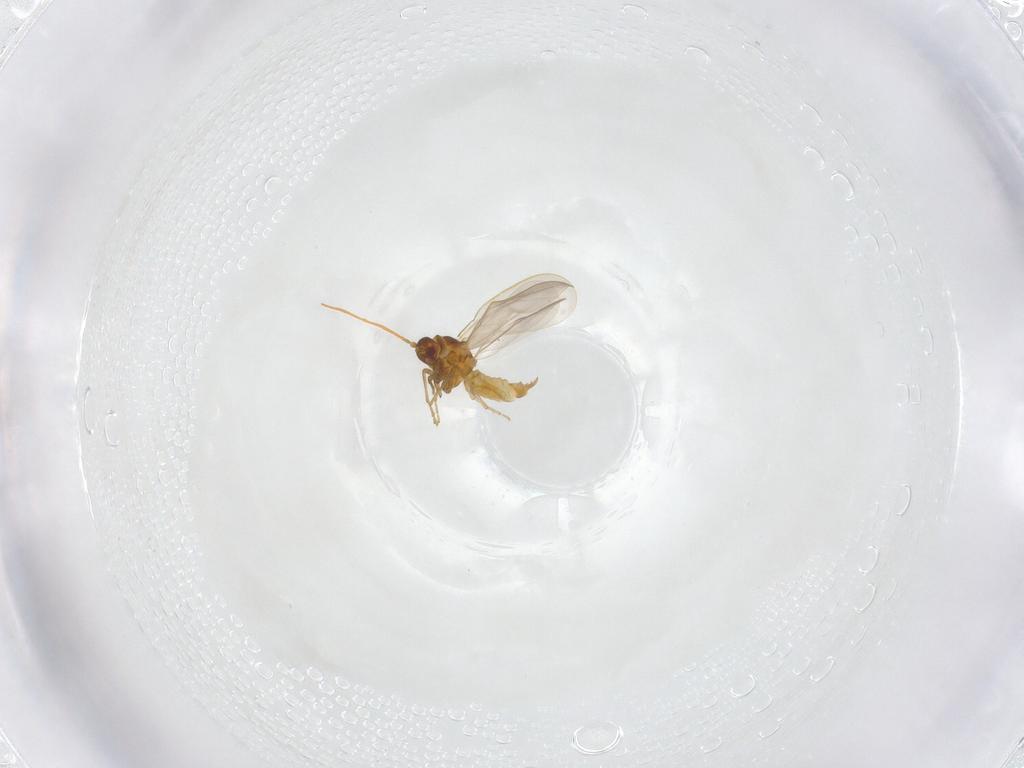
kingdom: Animalia
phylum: Arthropoda
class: Insecta
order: Hemiptera
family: Aleyrodidae
